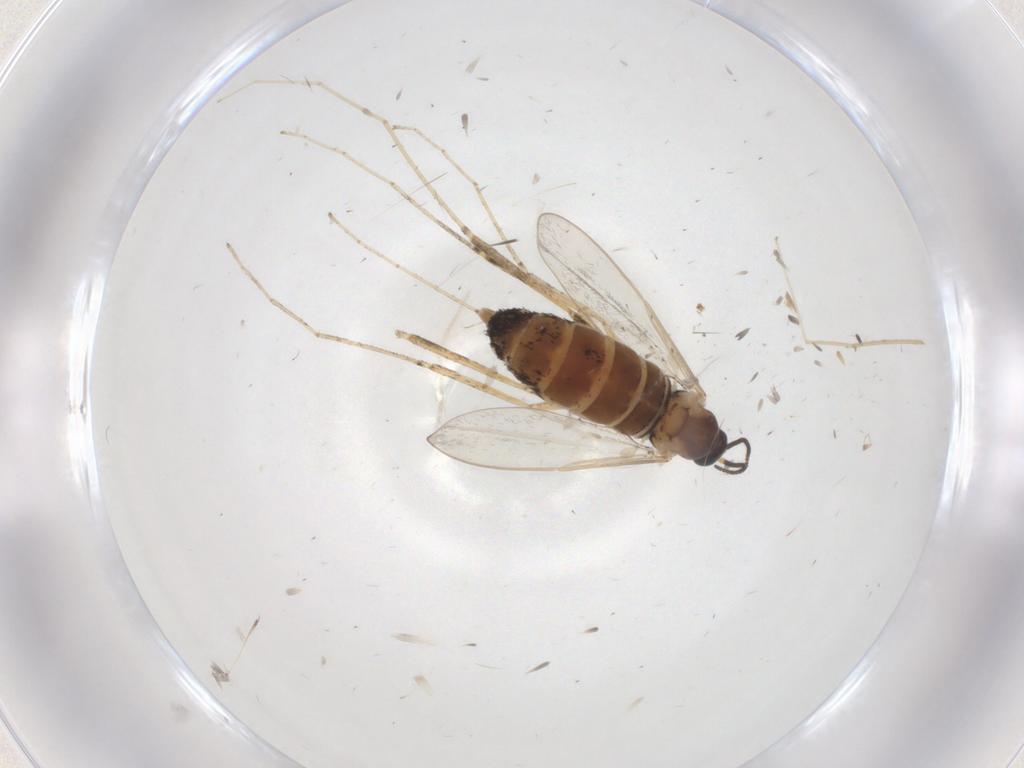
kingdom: Animalia
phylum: Arthropoda
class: Insecta
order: Diptera
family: Cecidomyiidae
